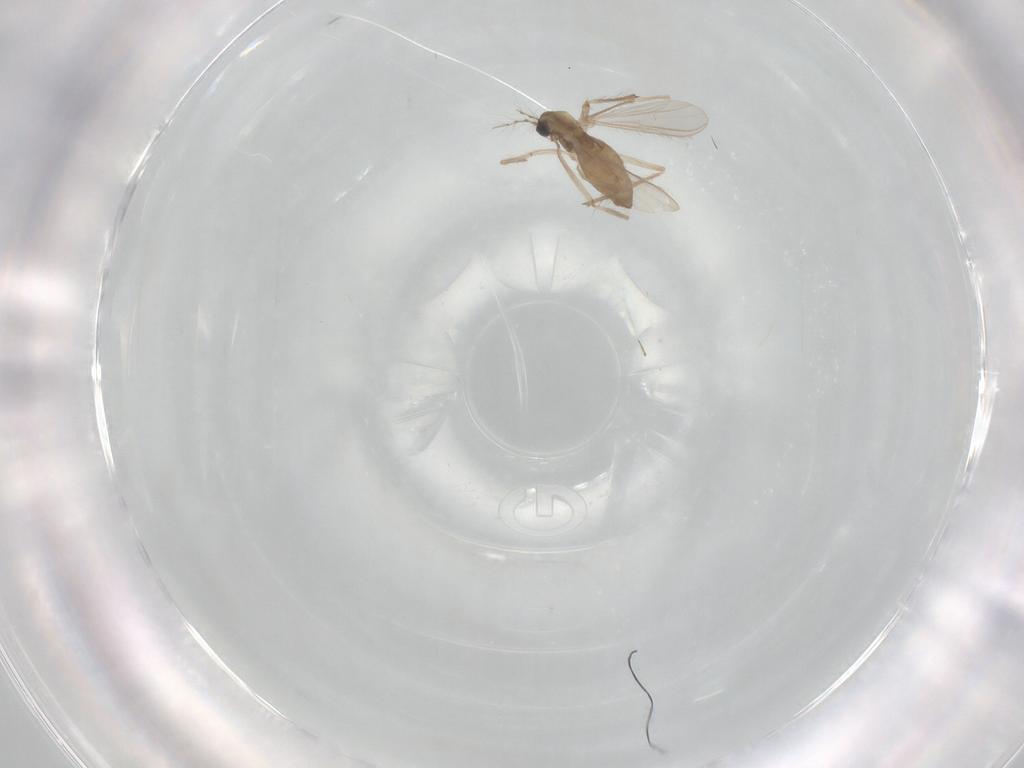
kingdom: Animalia
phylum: Arthropoda
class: Insecta
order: Diptera
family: Chironomidae
